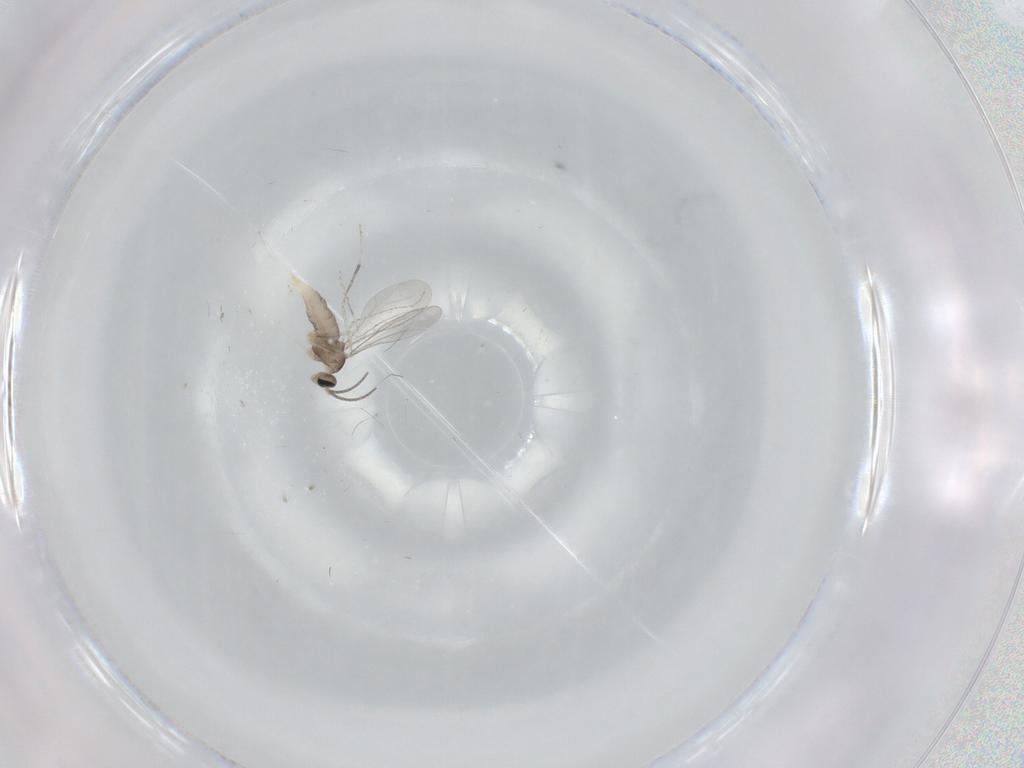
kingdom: Animalia
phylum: Arthropoda
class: Insecta
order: Diptera
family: Cecidomyiidae
